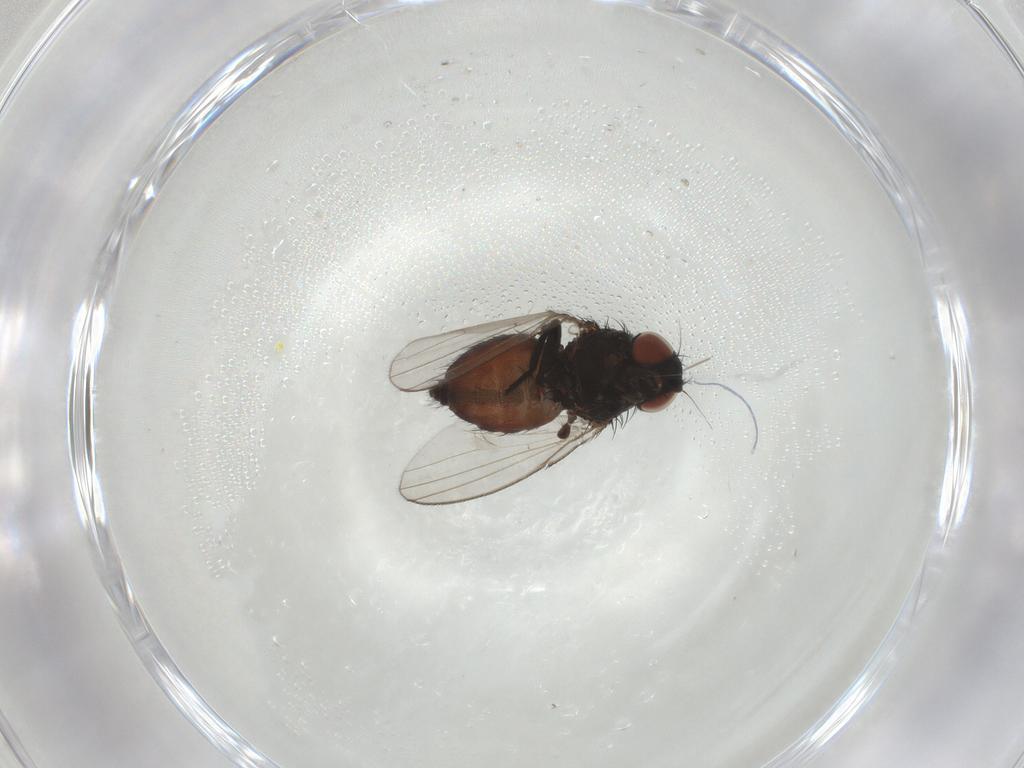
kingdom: Animalia
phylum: Arthropoda
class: Insecta
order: Diptera
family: Milichiidae
